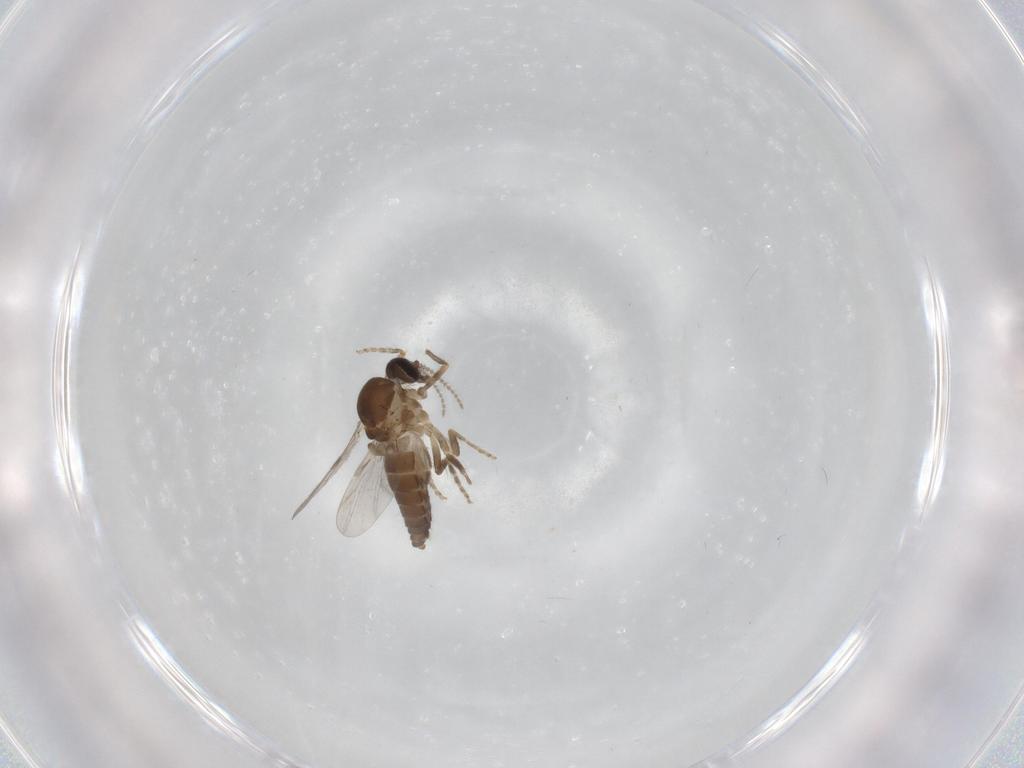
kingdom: Animalia
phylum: Arthropoda
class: Insecta
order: Diptera
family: Ceratopogonidae
